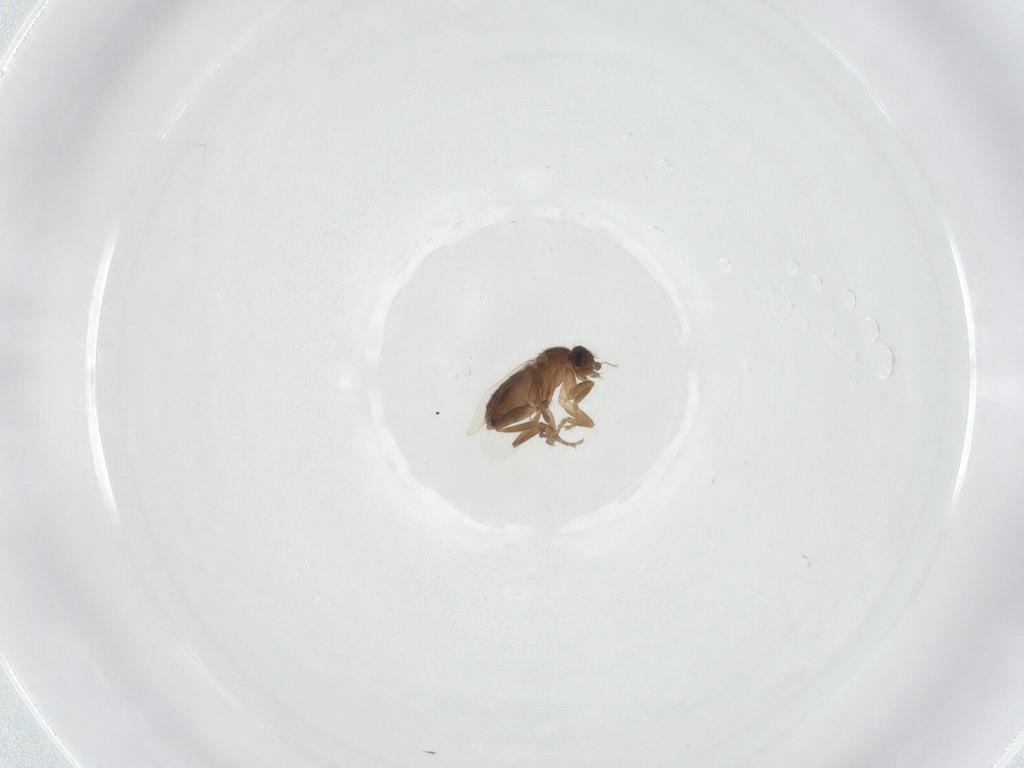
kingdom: Animalia
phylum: Arthropoda
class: Insecta
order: Diptera
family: Phoridae
